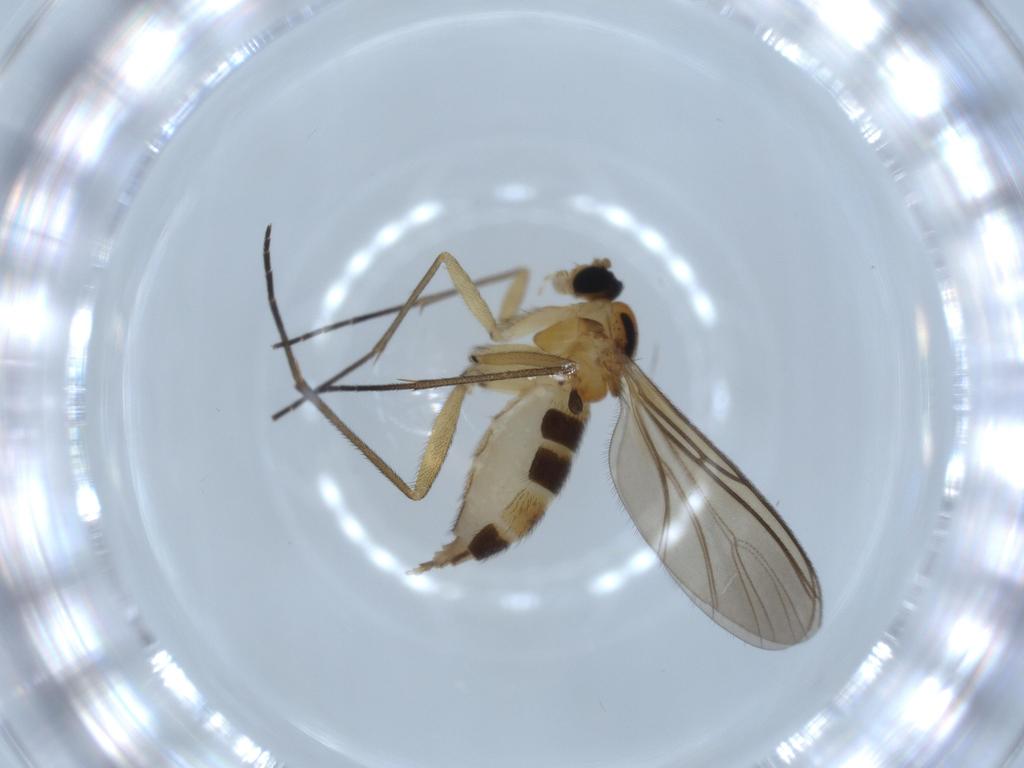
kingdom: Animalia
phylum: Arthropoda
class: Insecta
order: Diptera
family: Sciaridae
